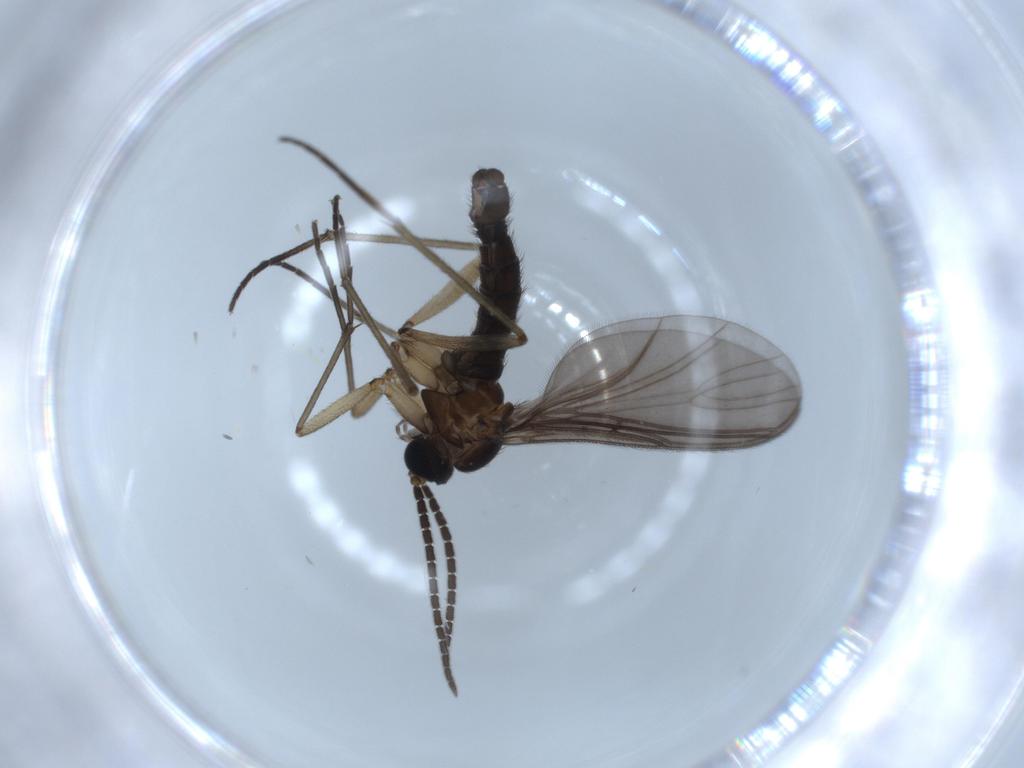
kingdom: Animalia
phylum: Arthropoda
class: Insecta
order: Diptera
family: Sciaridae
